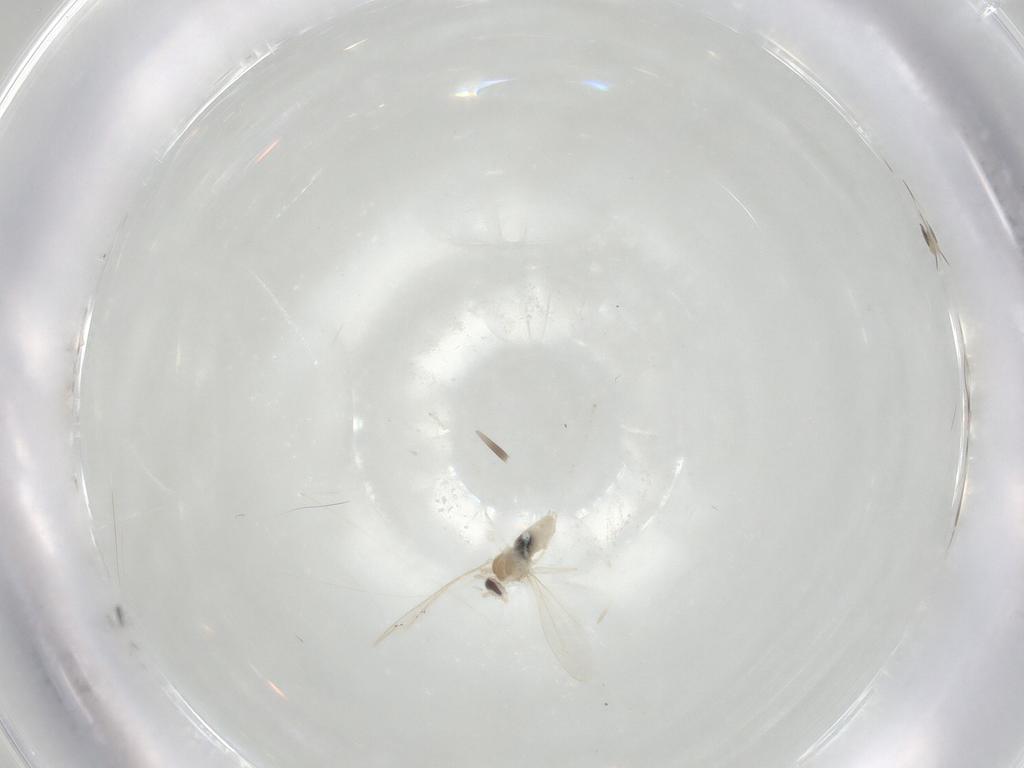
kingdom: Animalia
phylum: Arthropoda
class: Insecta
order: Diptera
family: Cecidomyiidae
